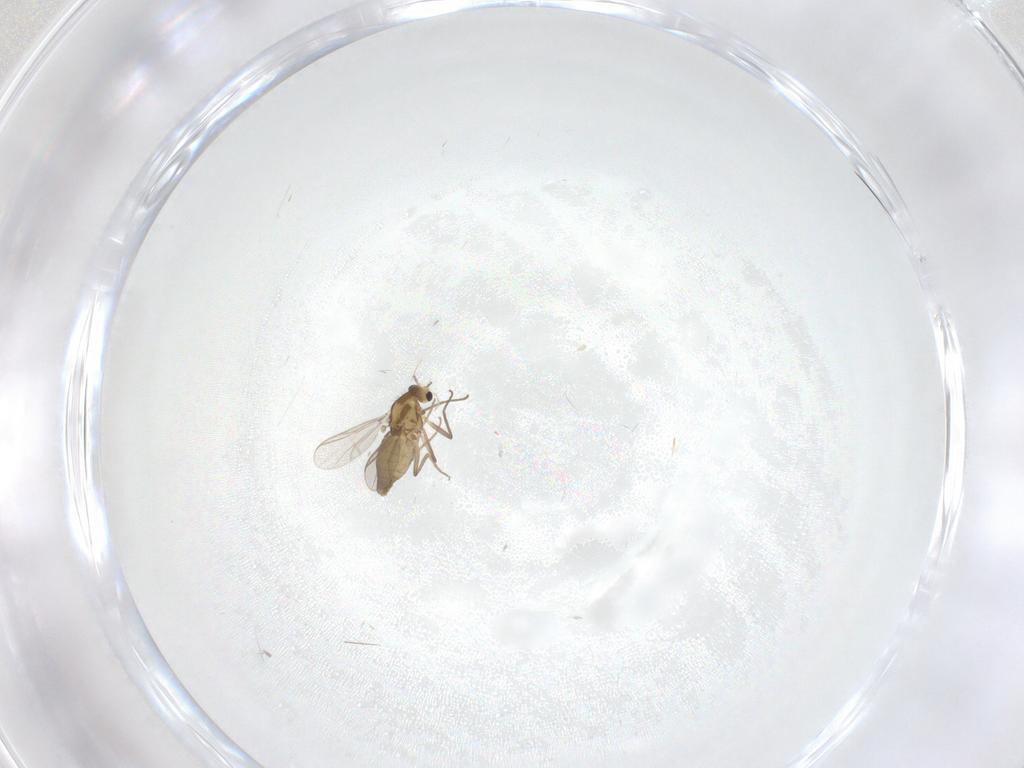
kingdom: Animalia
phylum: Arthropoda
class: Insecta
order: Diptera
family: Chironomidae
